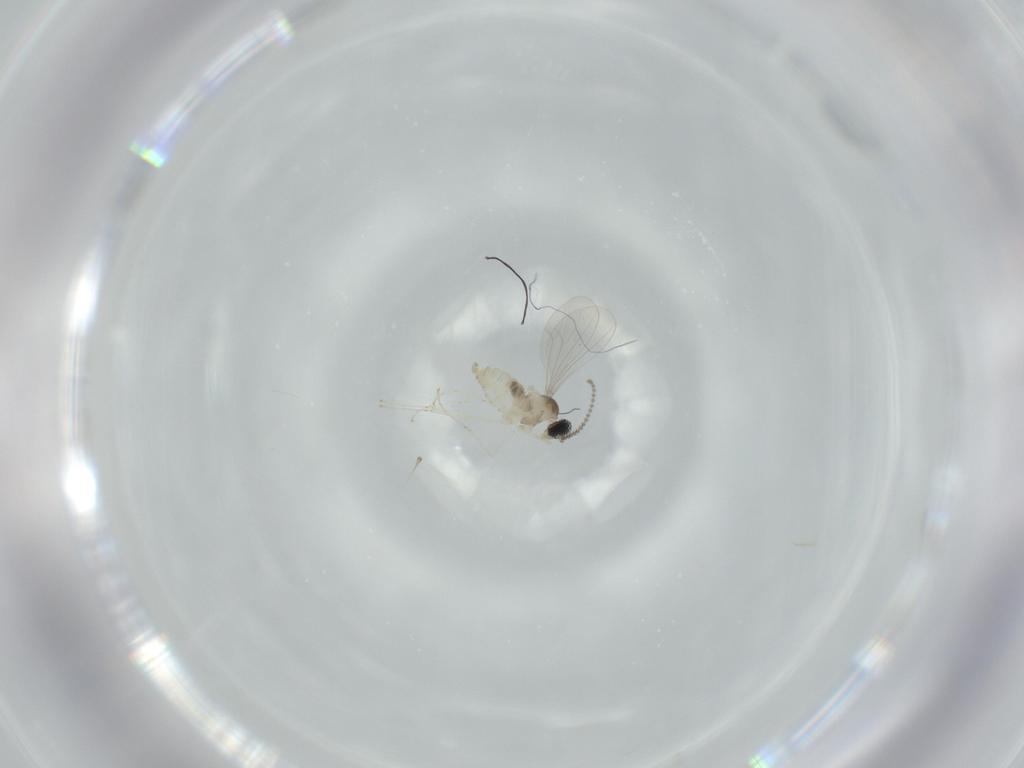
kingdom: Animalia
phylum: Arthropoda
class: Insecta
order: Diptera
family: Cecidomyiidae
